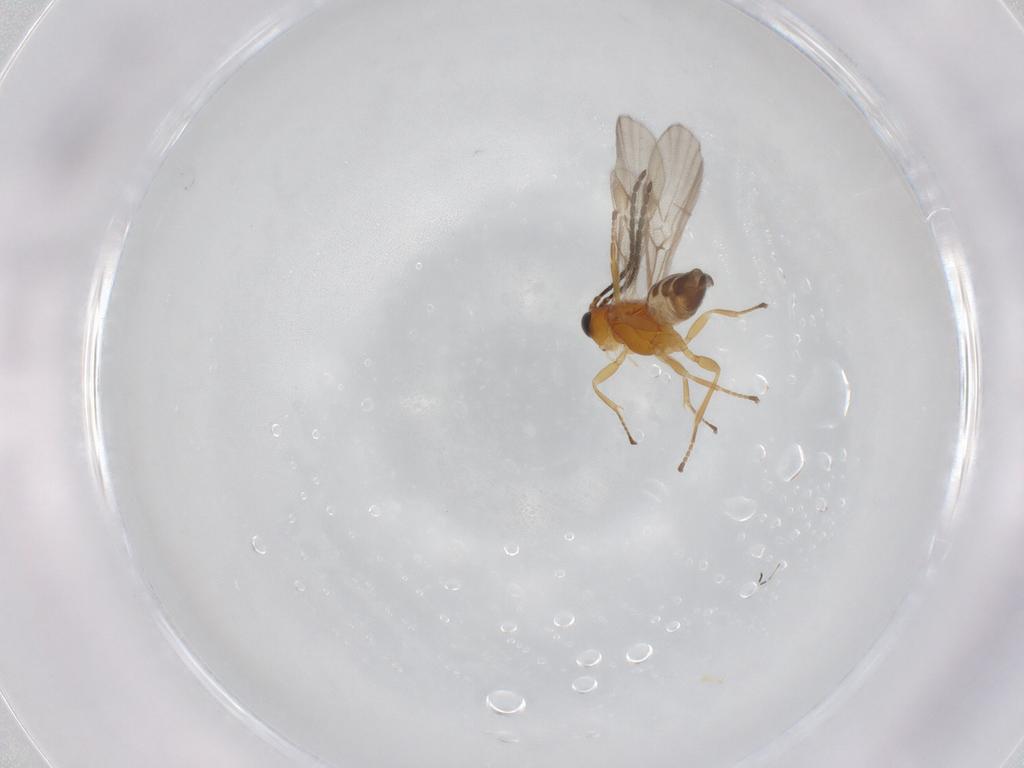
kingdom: Animalia
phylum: Arthropoda
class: Insecta
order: Hymenoptera
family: Braconidae
